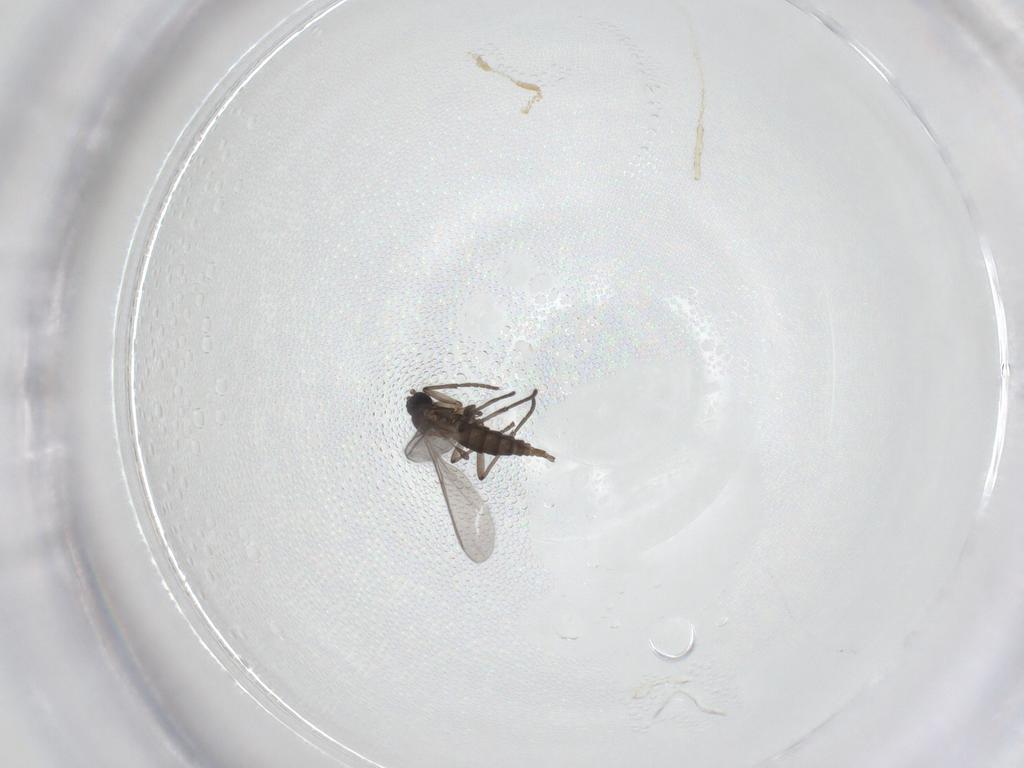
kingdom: Animalia
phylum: Arthropoda
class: Insecta
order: Diptera
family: Sciaridae
